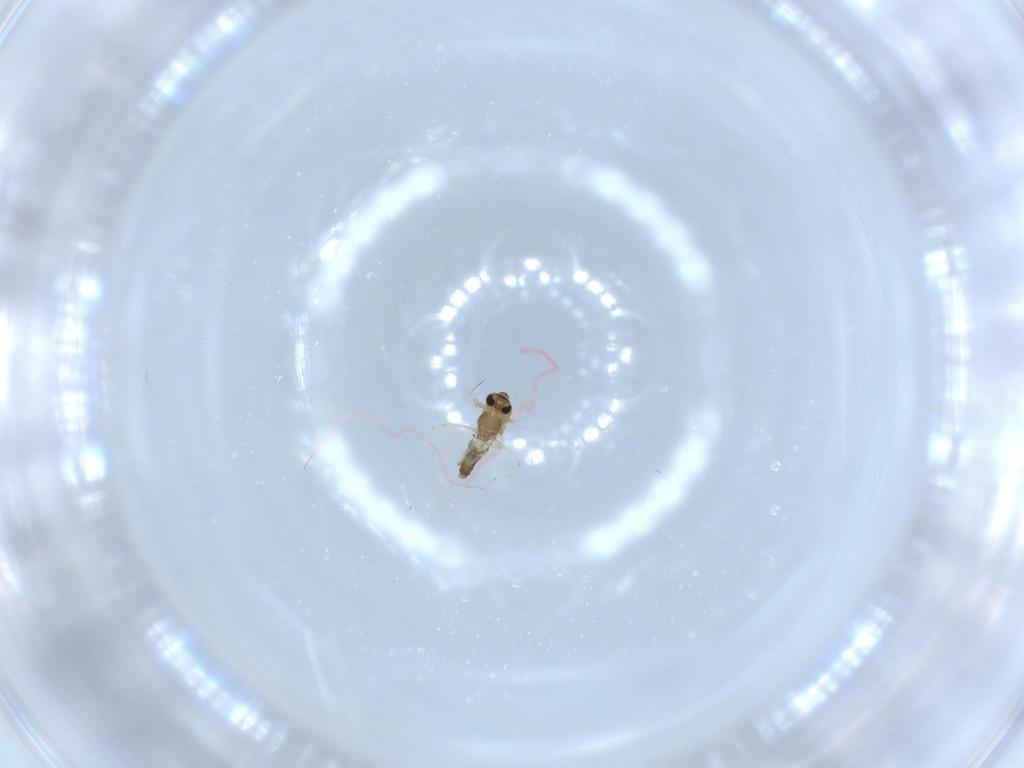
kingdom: Animalia
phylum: Arthropoda
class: Insecta
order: Diptera
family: Chironomidae
